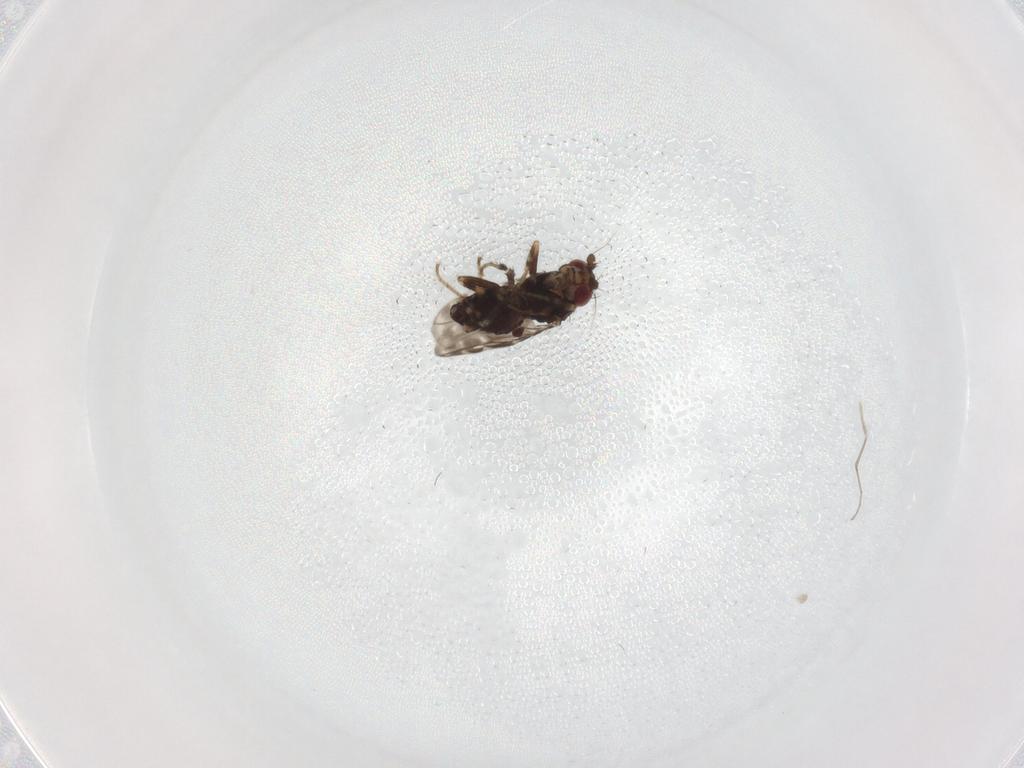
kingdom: Animalia
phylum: Arthropoda
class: Insecta
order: Diptera
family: Sphaeroceridae
